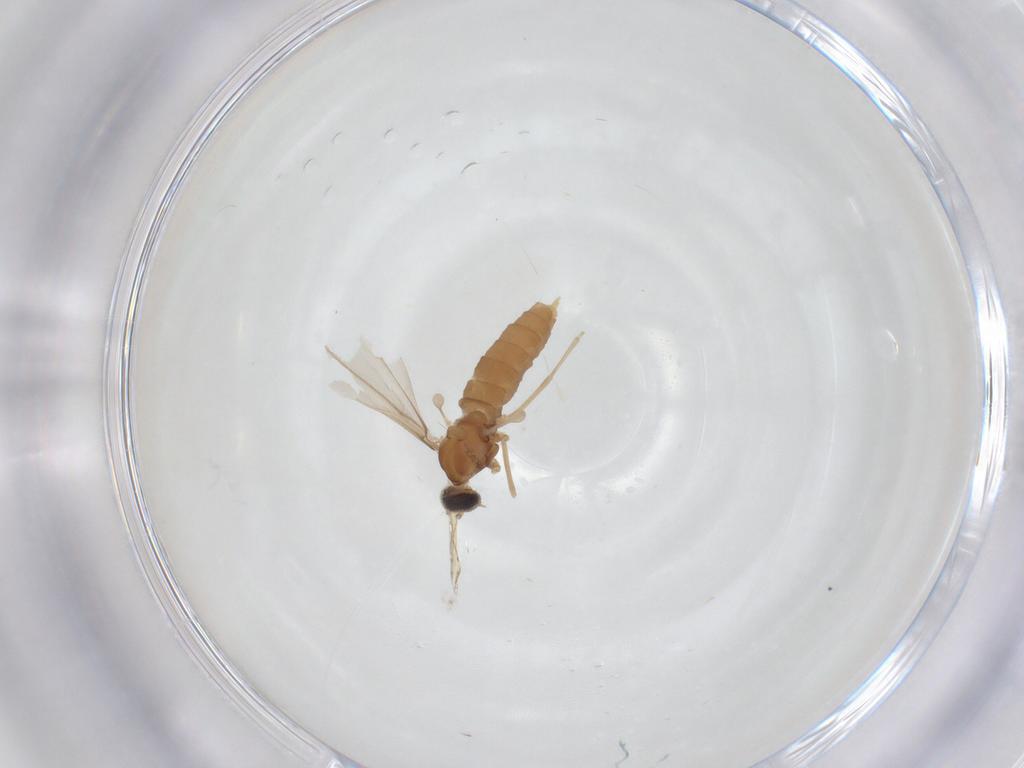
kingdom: Animalia
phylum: Arthropoda
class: Insecta
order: Diptera
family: Cecidomyiidae
